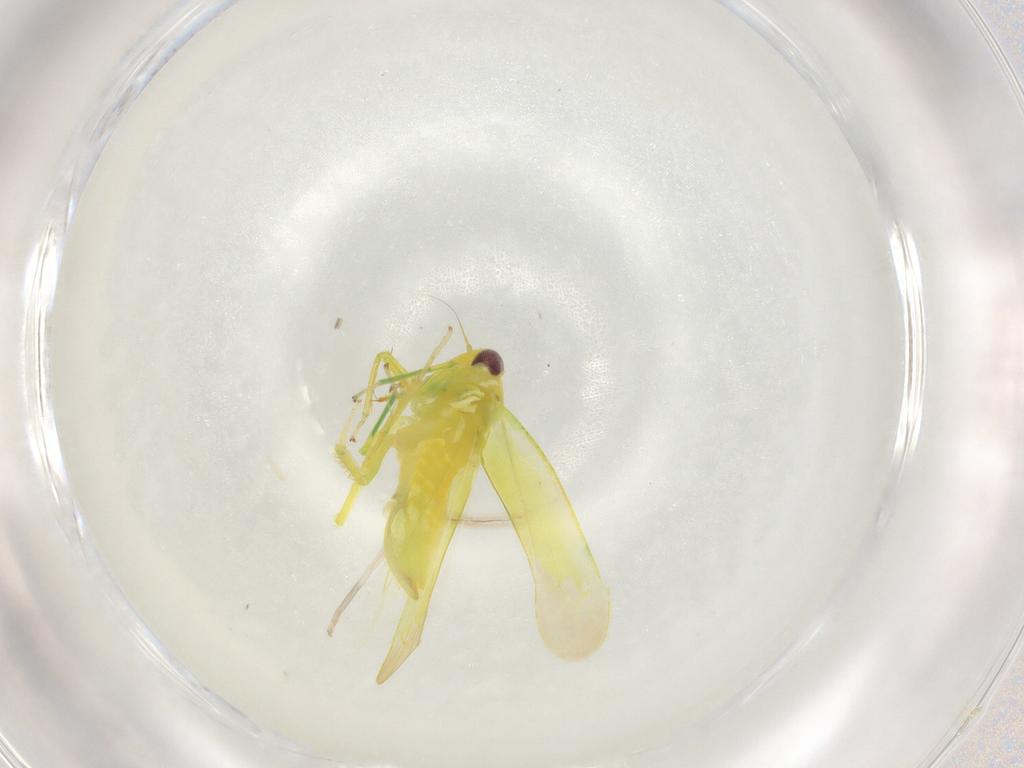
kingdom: Animalia
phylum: Arthropoda
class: Insecta
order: Hemiptera
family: Cicadellidae
